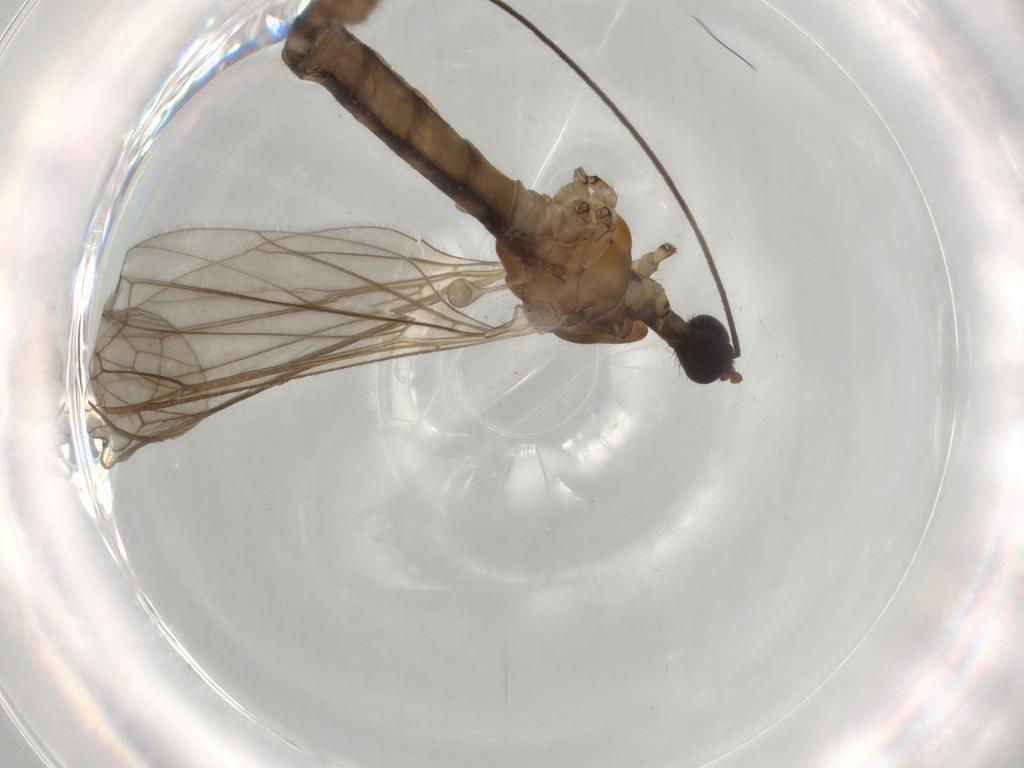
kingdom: Animalia
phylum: Arthropoda
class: Insecta
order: Diptera
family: Limoniidae
